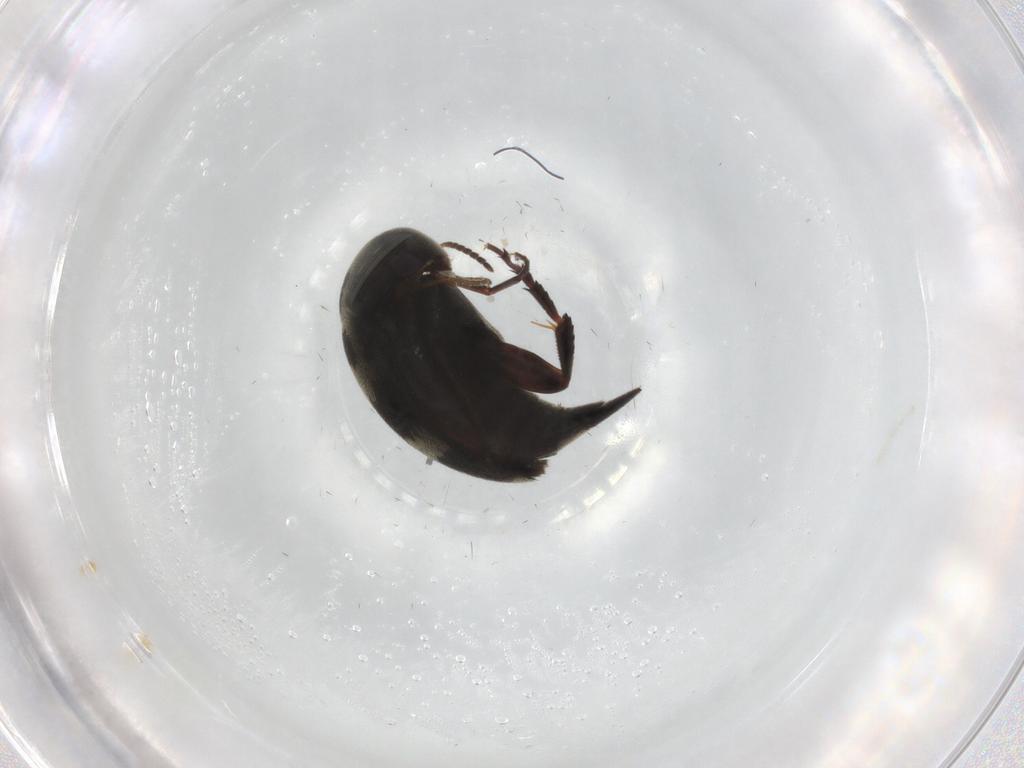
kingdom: Animalia
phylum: Arthropoda
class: Insecta
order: Coleoptera
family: Mordellidae
